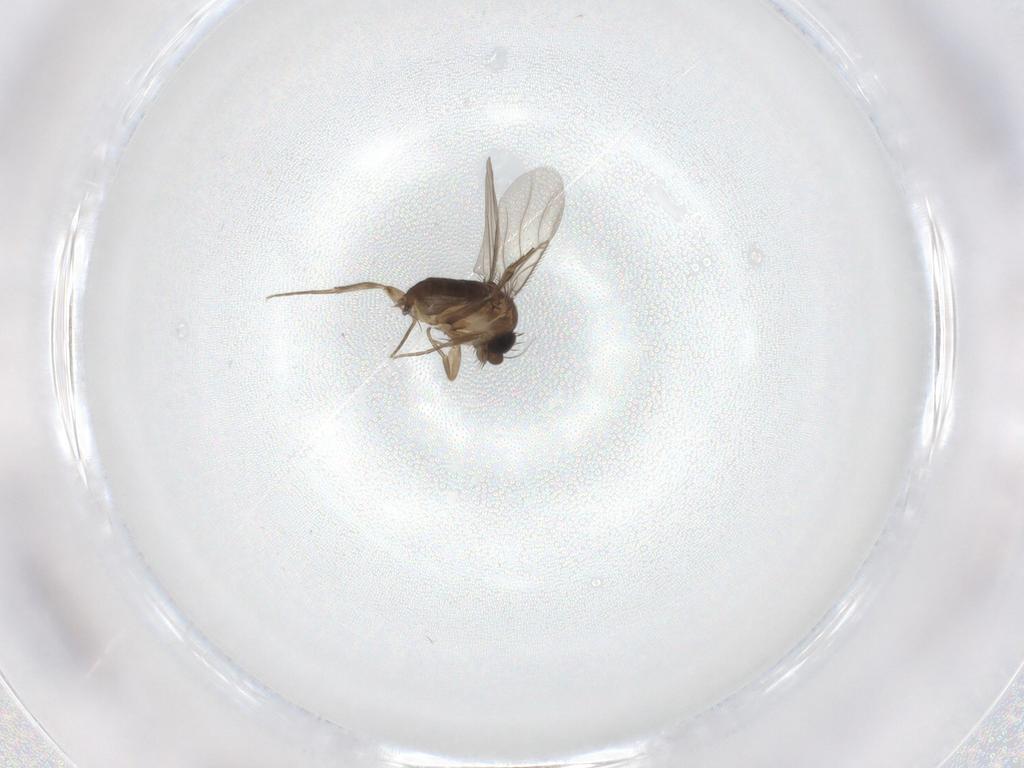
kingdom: Animalia
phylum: Arthropoda
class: Insecta
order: Diptera
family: Phoridae
